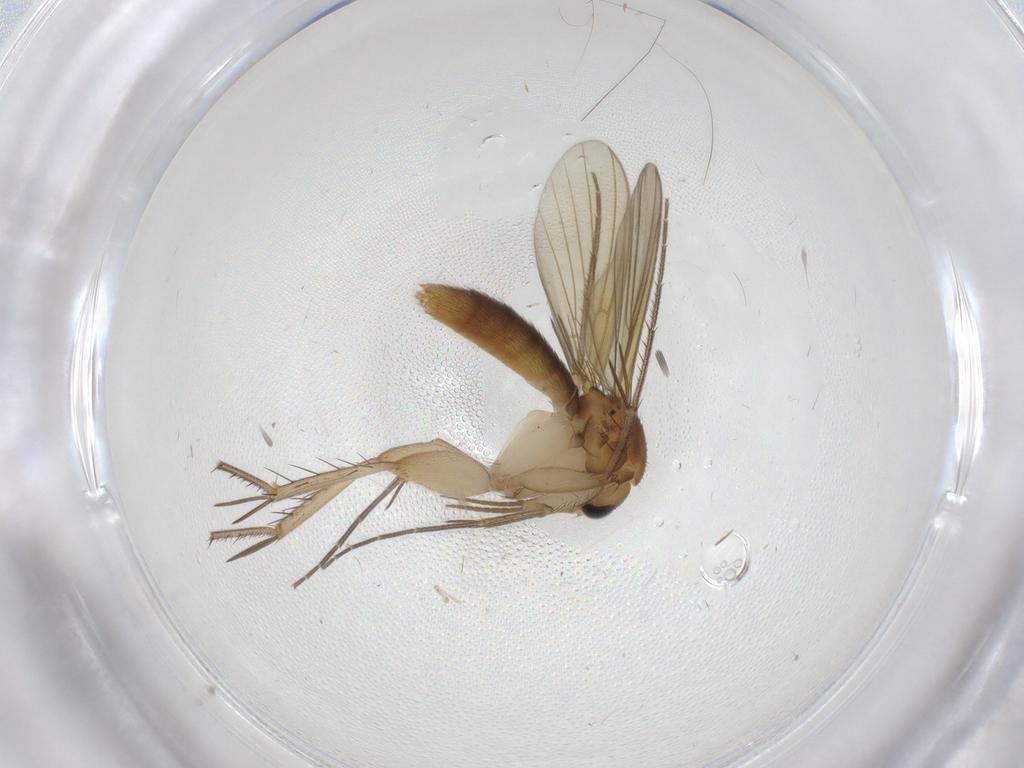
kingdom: Animalia
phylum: Arthropoda
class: Insecta
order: Diptera
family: Mycetophilidae
